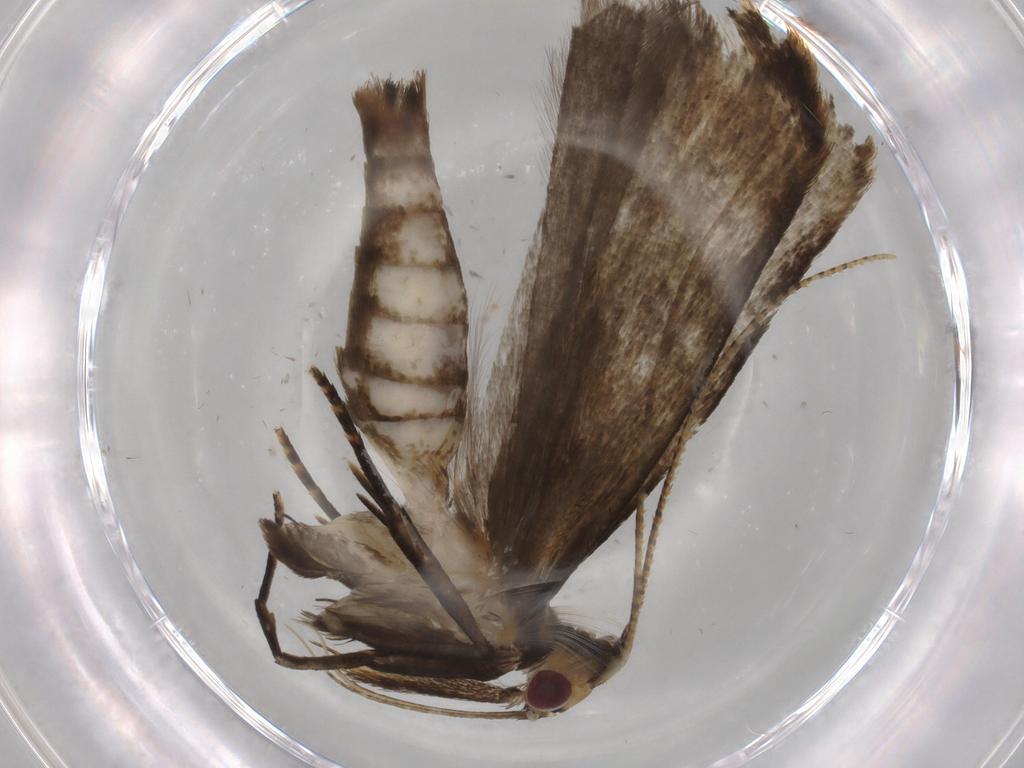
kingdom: Animalia
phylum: Arthropoda
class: Insecta
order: Lepidoptera
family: Gelechiidae
